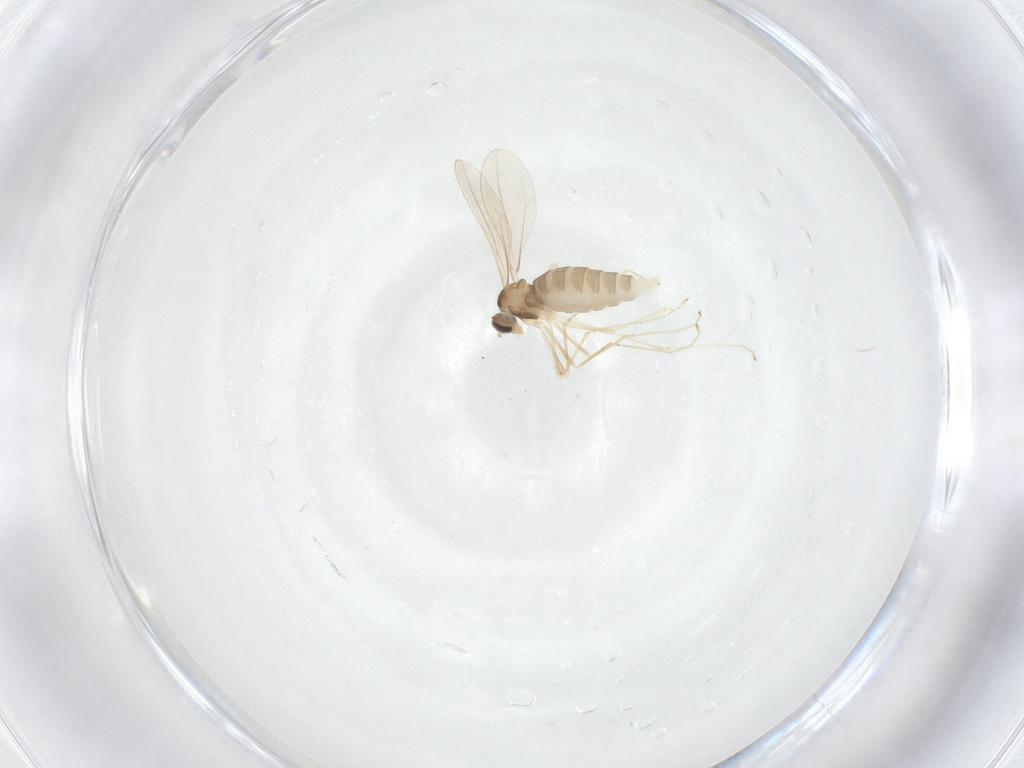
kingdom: Animalia
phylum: Arthropoda
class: Insecta
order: Diptera
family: Cecidomyiidae
